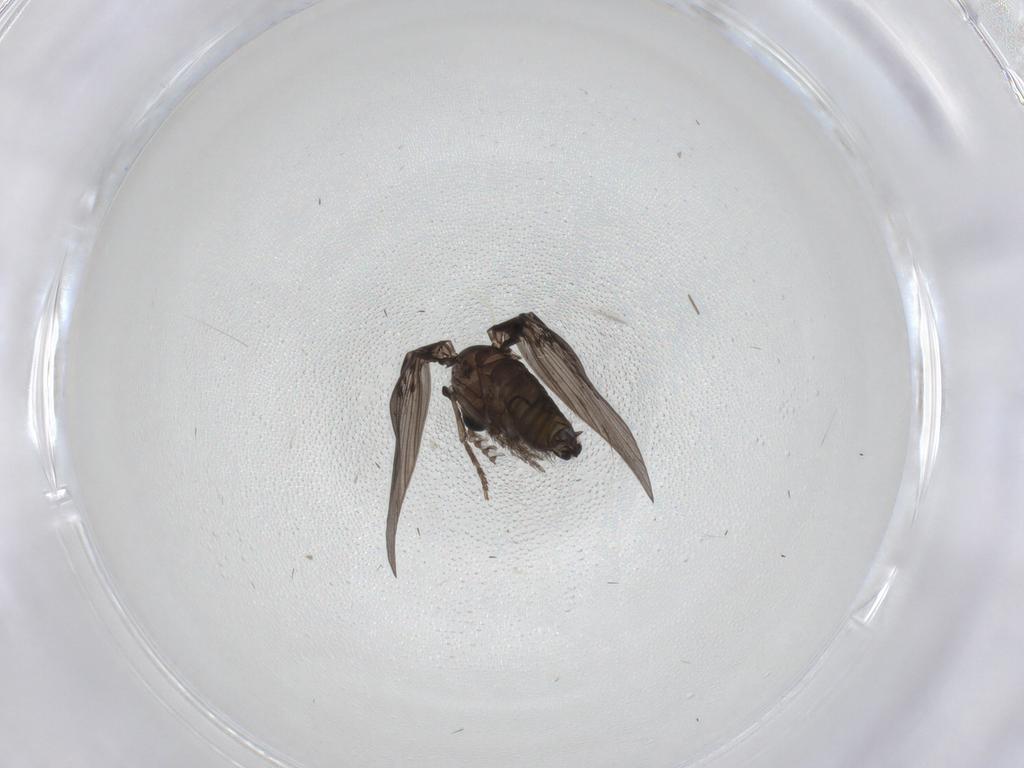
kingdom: Animalia
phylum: Arthropoda
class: Insecta
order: Diptera
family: Psychodidae
